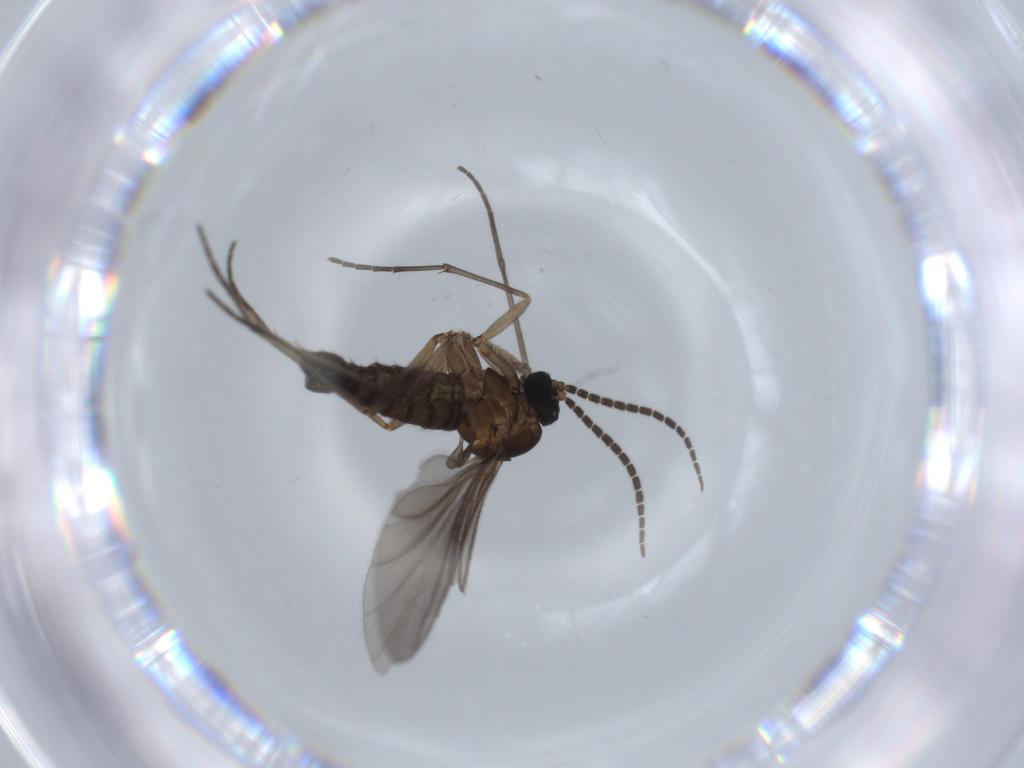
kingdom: Animalia
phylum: Arthropoda
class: Insecta
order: Diptera
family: Sciaridae
